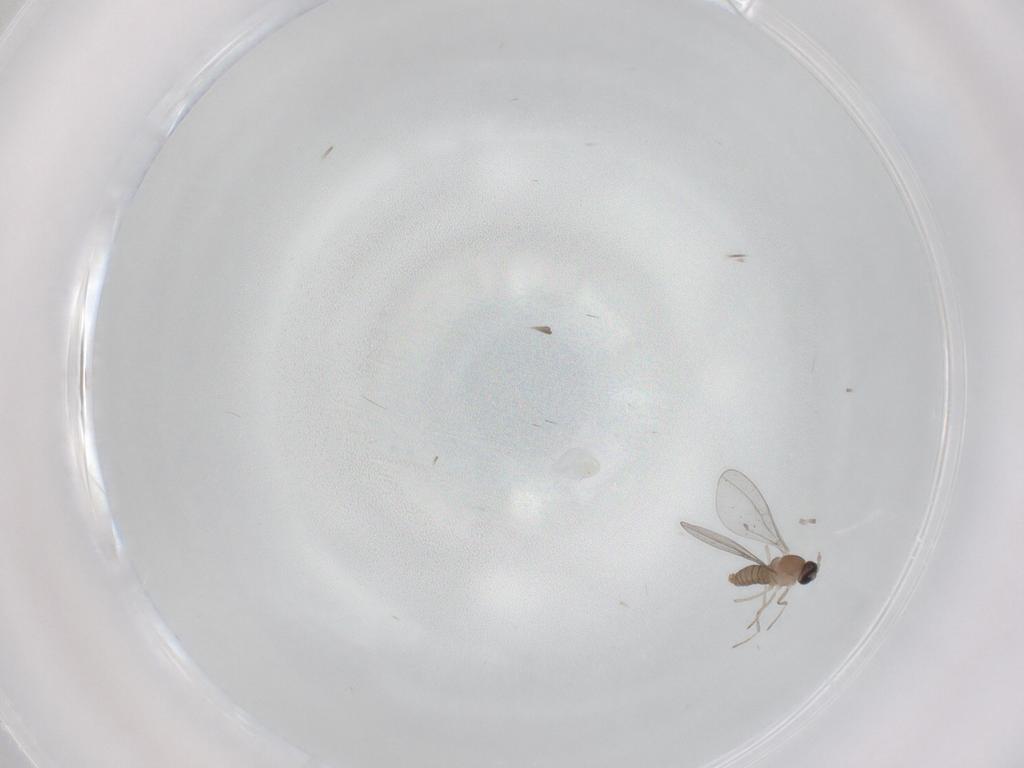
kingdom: Animalia
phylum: Arthropoda
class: Insecta
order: Diptera
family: Cecidomyiidae
